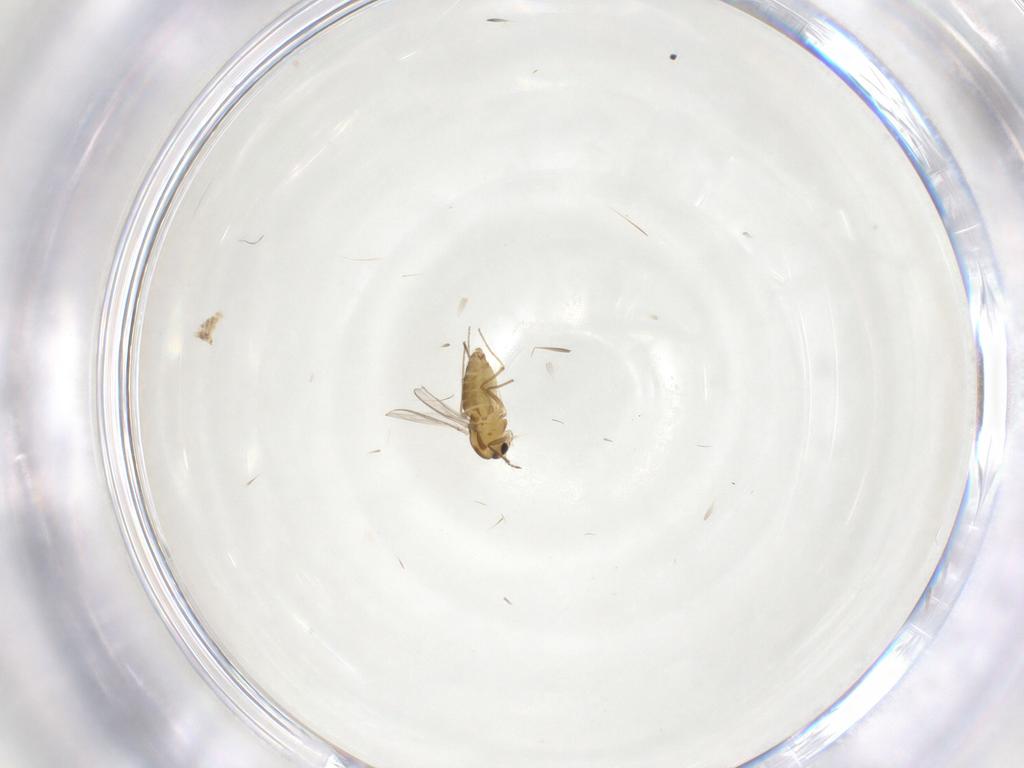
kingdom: Animalia
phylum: Arthropoda
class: Insecta
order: Diptera
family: Chironomidae
